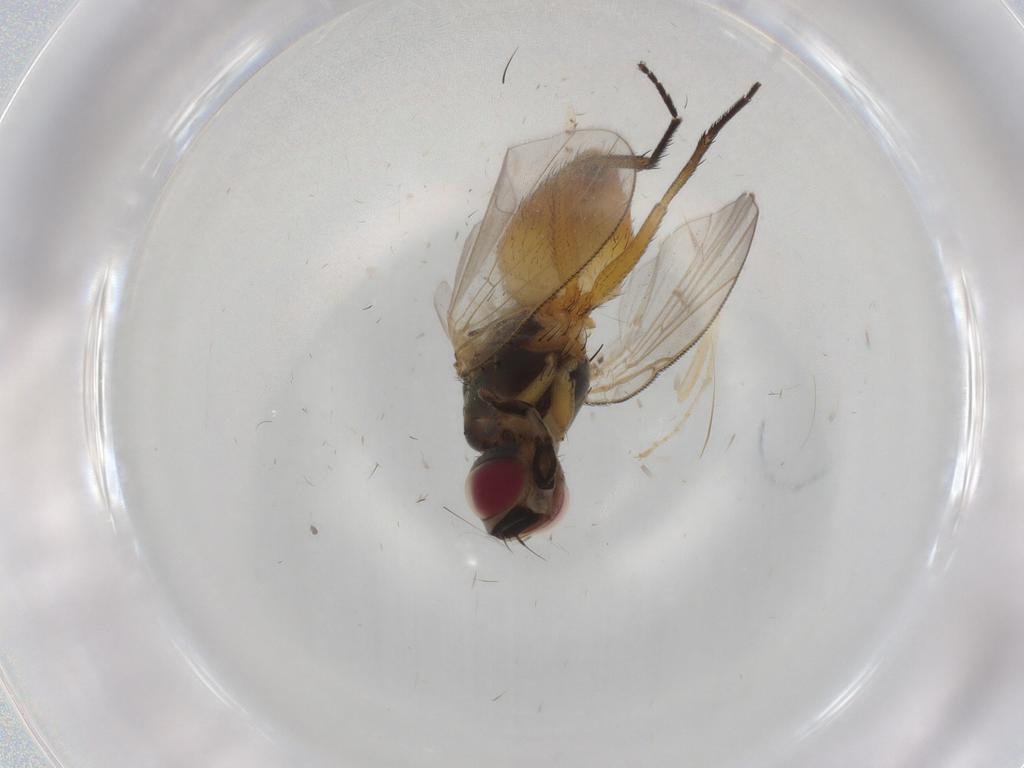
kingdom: Animalia
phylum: Arthropoda
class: Insecta
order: Diptera
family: Muscidae
